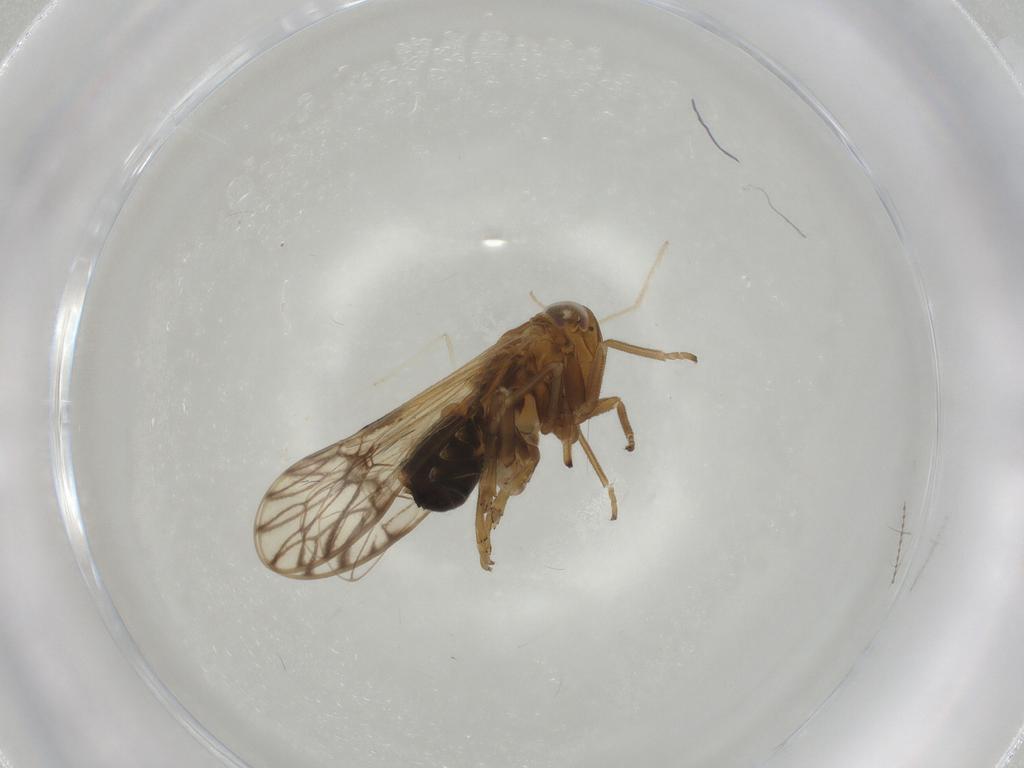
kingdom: Animalia
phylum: Arthropoda
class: Insecta
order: Hemiptera
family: Delphacidae
